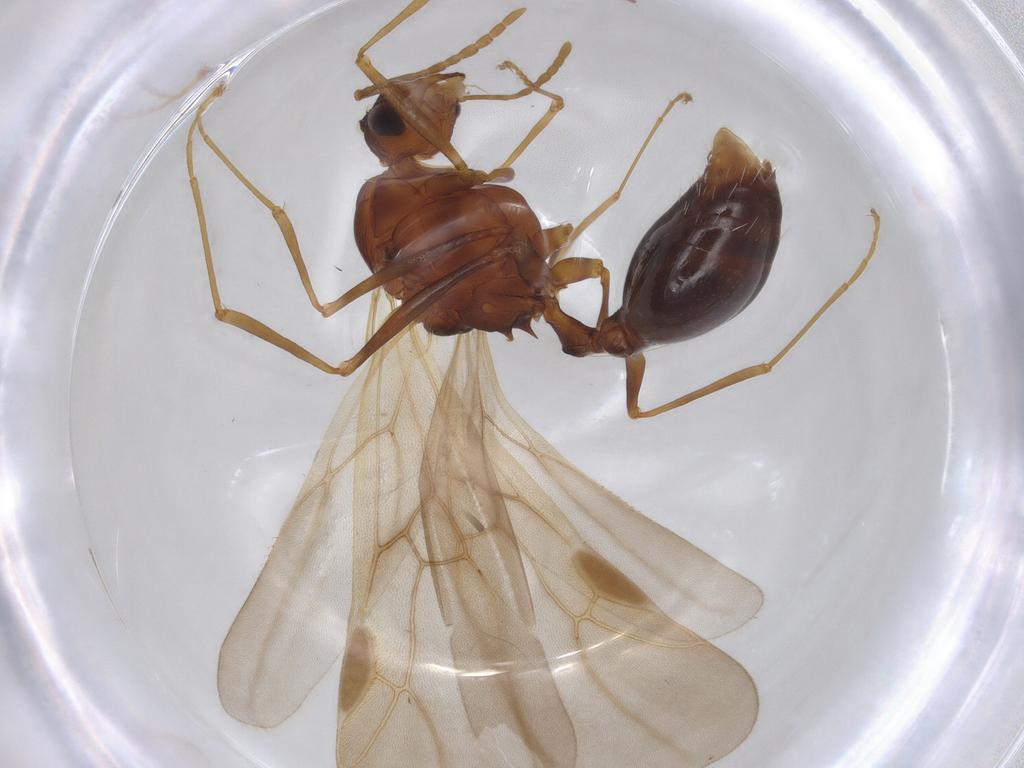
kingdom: Animalia
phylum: Arthropoda
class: Insecta
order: Hymenoptera
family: Formicidae
